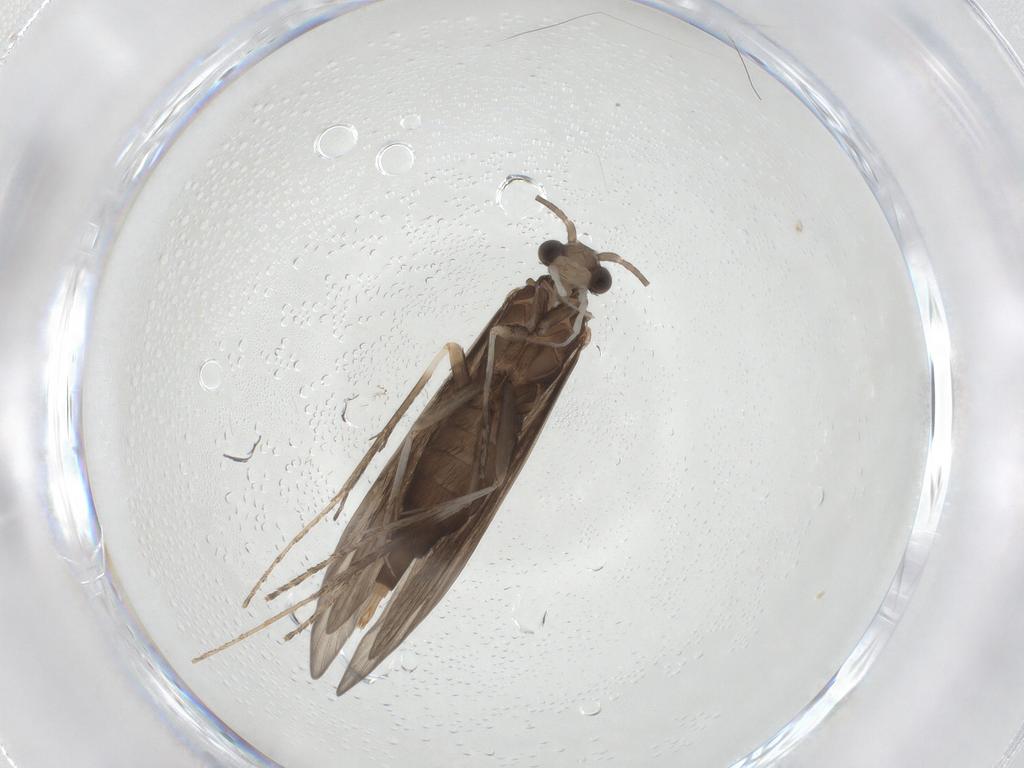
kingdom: Animalia
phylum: Arthropoda
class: Insecta
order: Trichoptera
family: Xiphocentronidae
